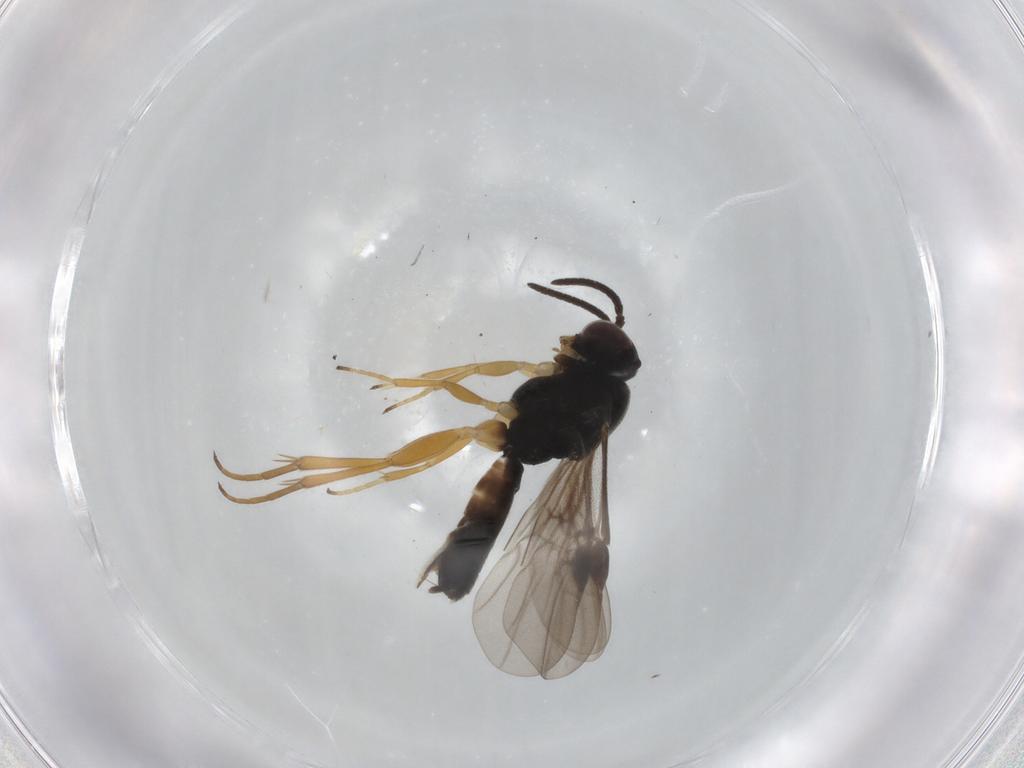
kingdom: Animalia
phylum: Arthropoda
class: Insecta
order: Hymenoptera
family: Braconidae
